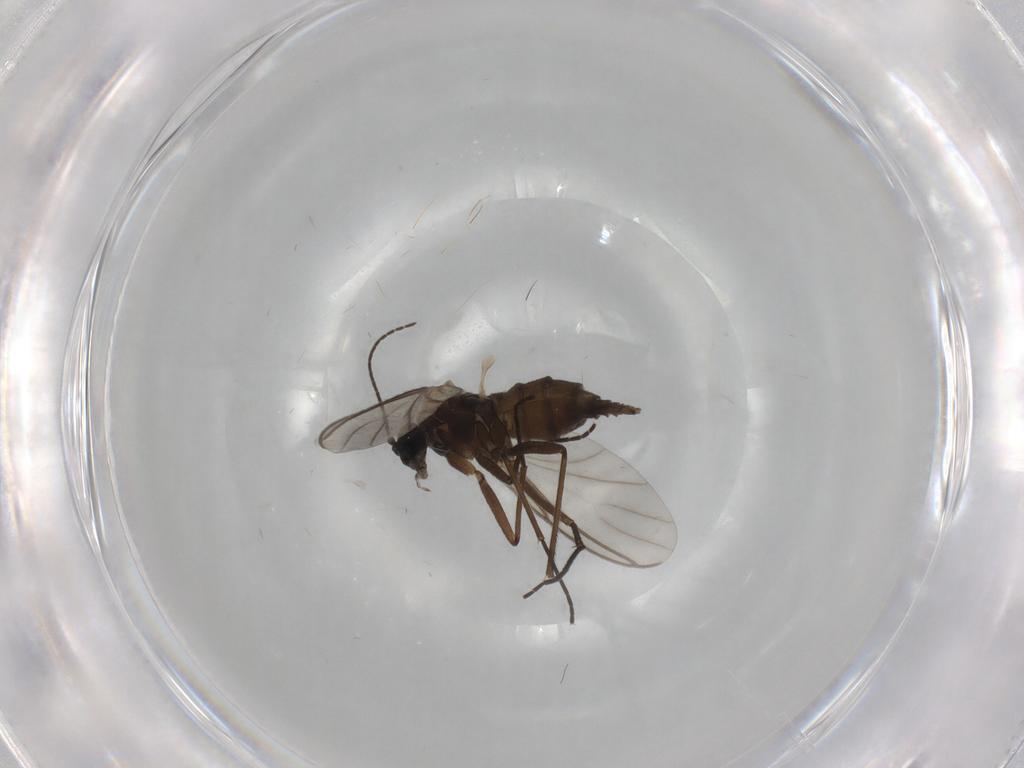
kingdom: Animalia
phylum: Arthropoda
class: Insecta
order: Diptera
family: Sciaridae
